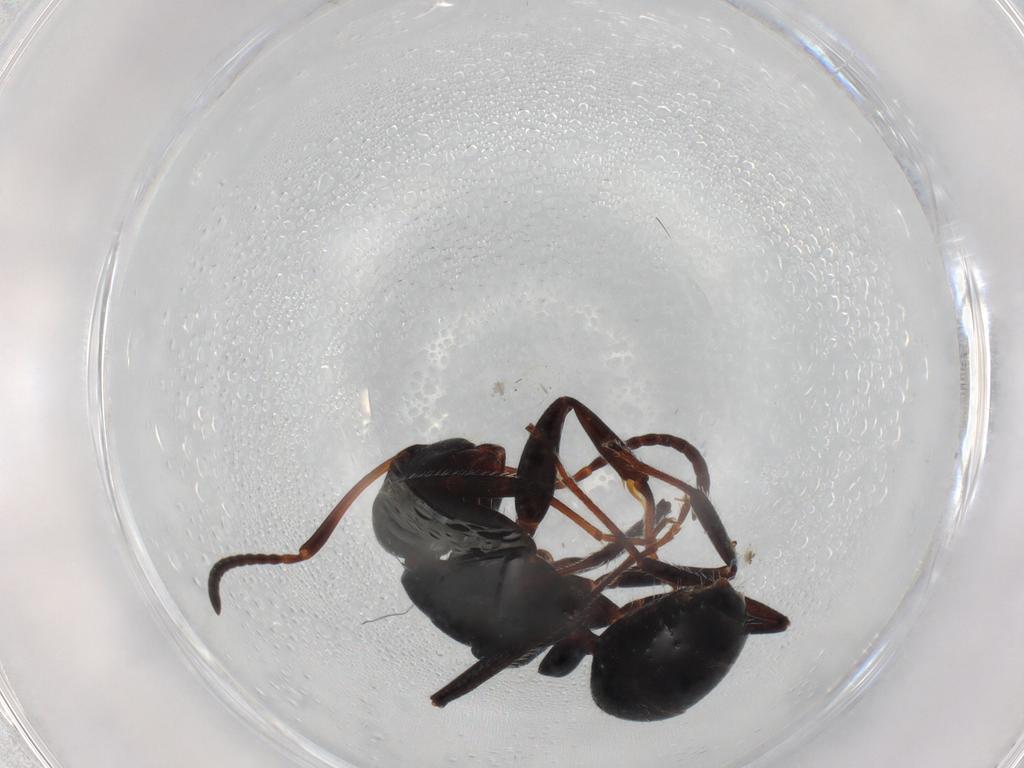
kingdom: Animalia
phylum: Arthropoda
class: Insecta
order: Hymenoptera
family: Formicidae
